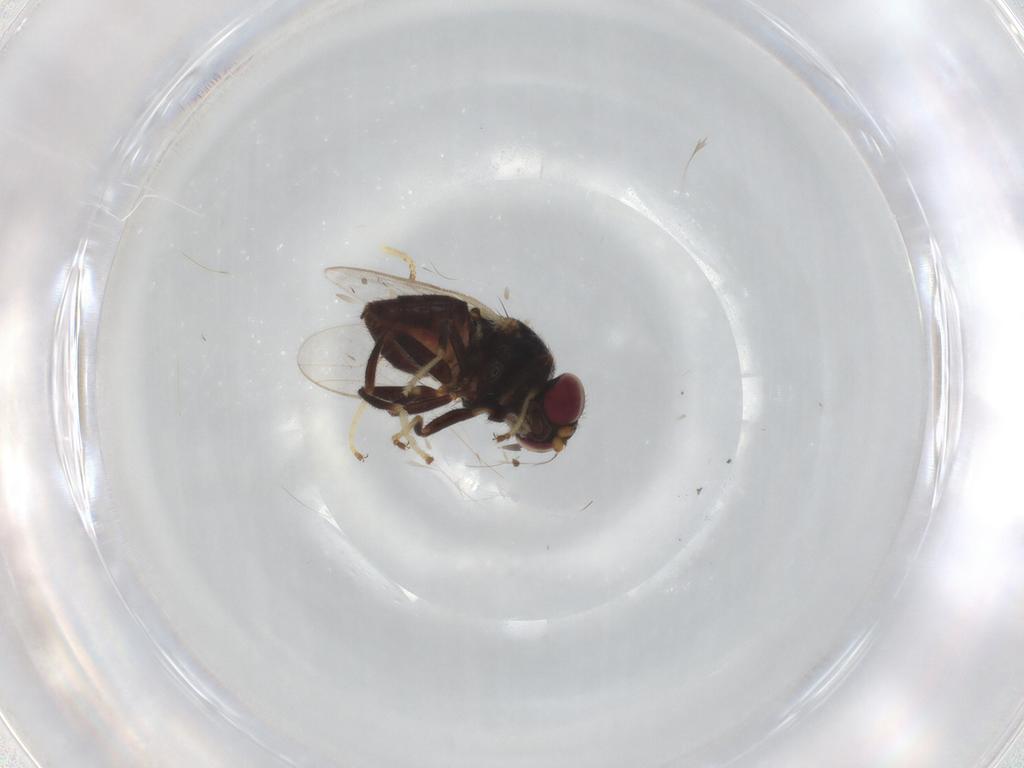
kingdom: Animalia
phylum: Arthropoda
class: Insecta
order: Diptera
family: Chloropidae
